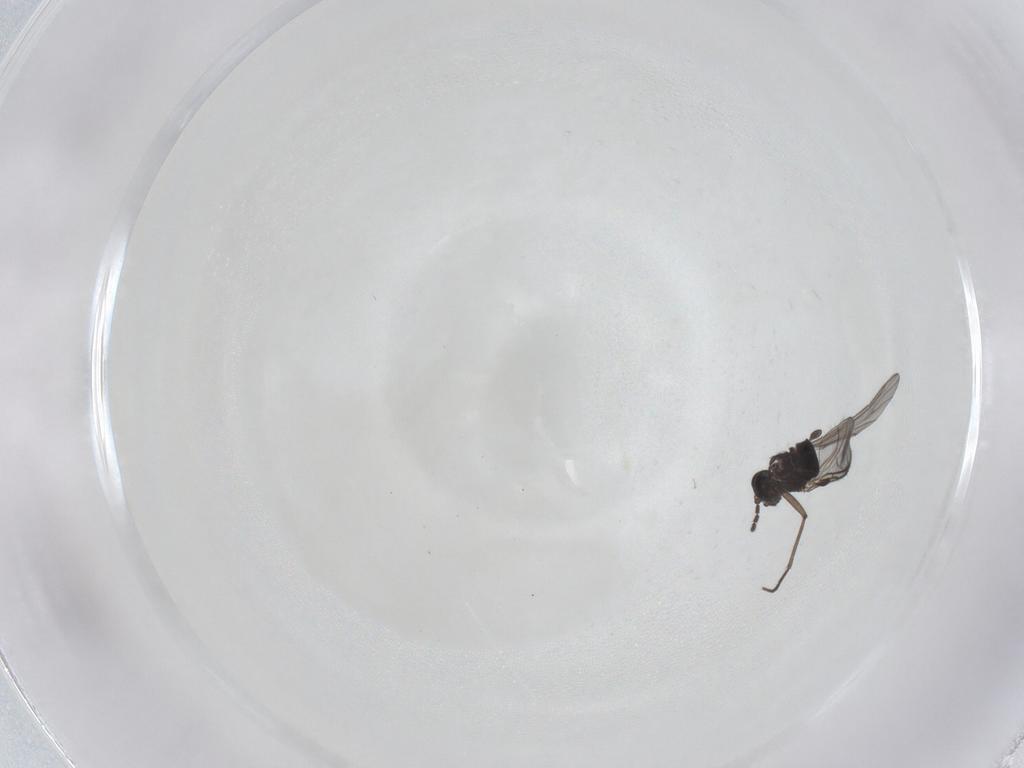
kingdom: Animalia
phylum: Arthropoda
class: Insecta
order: Diptera
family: Sciaridae
